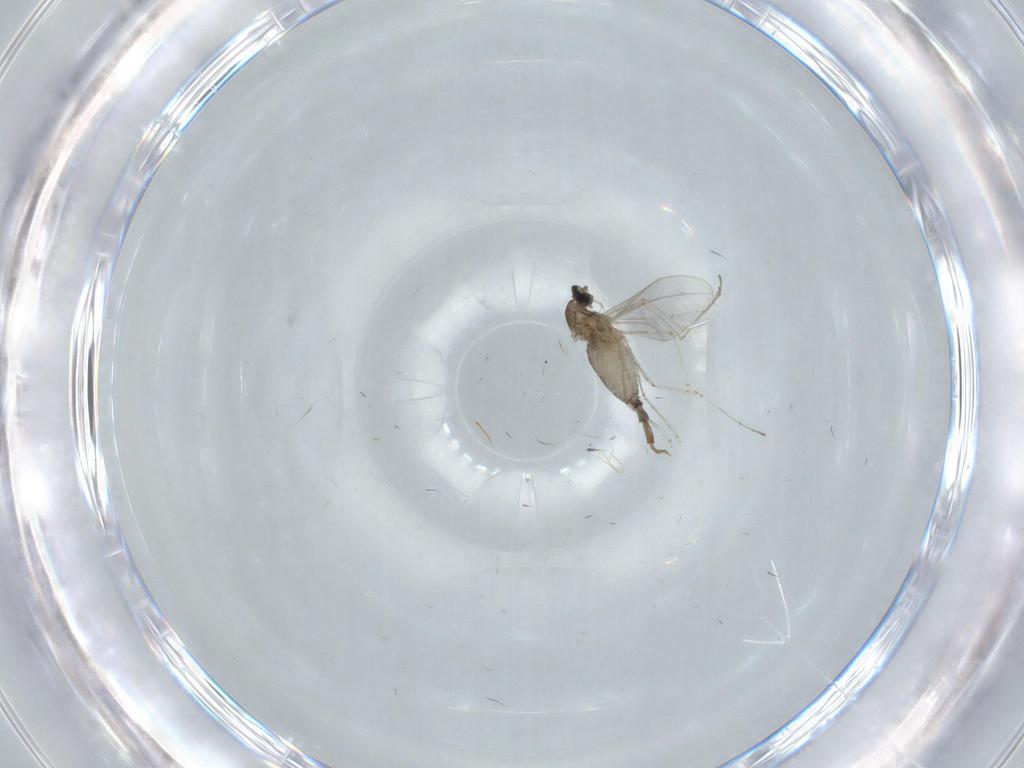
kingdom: Animalia
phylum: Arthropoda
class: Insecta
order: Diptera
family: Cecidomyiidae
